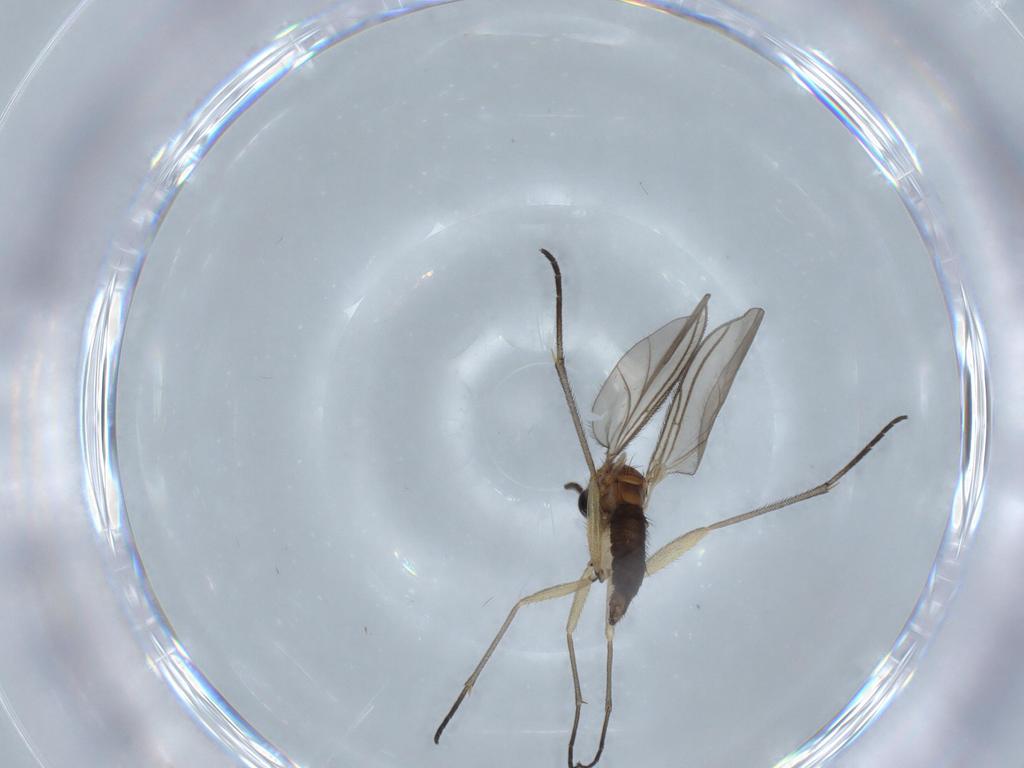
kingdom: Animalia
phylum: Arthropoda
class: Insecta
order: Diptera
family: Sciaridae
